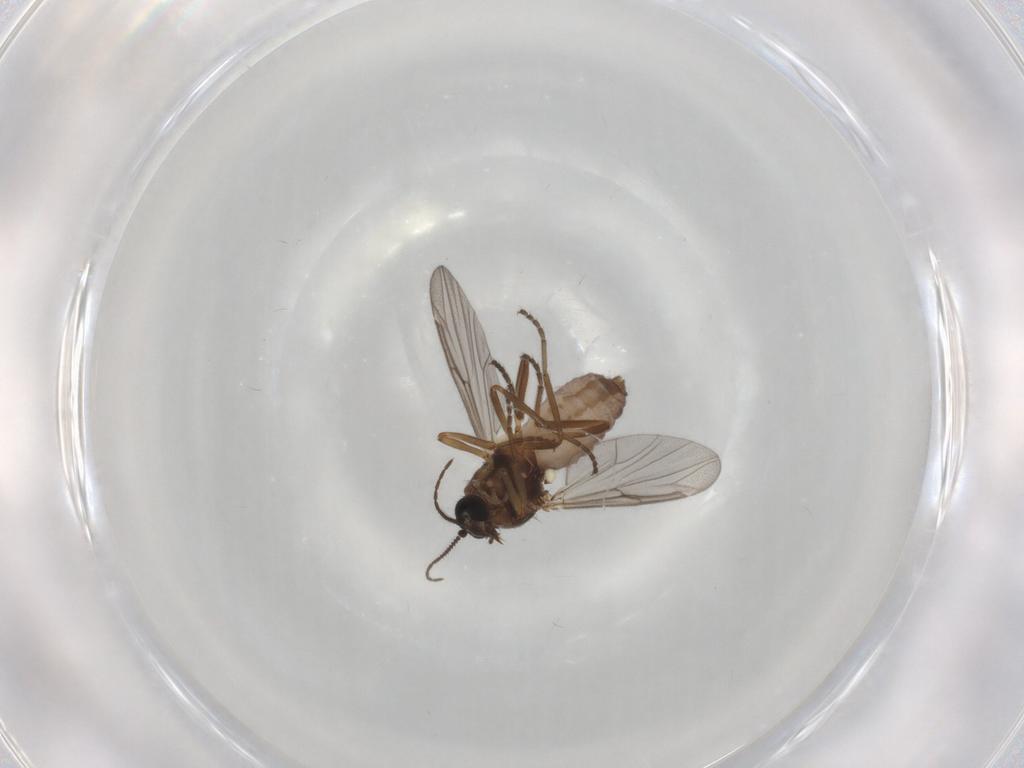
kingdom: Animalia
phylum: Arthropoda
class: Insecta
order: Diptera
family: Ceratopogonidae
